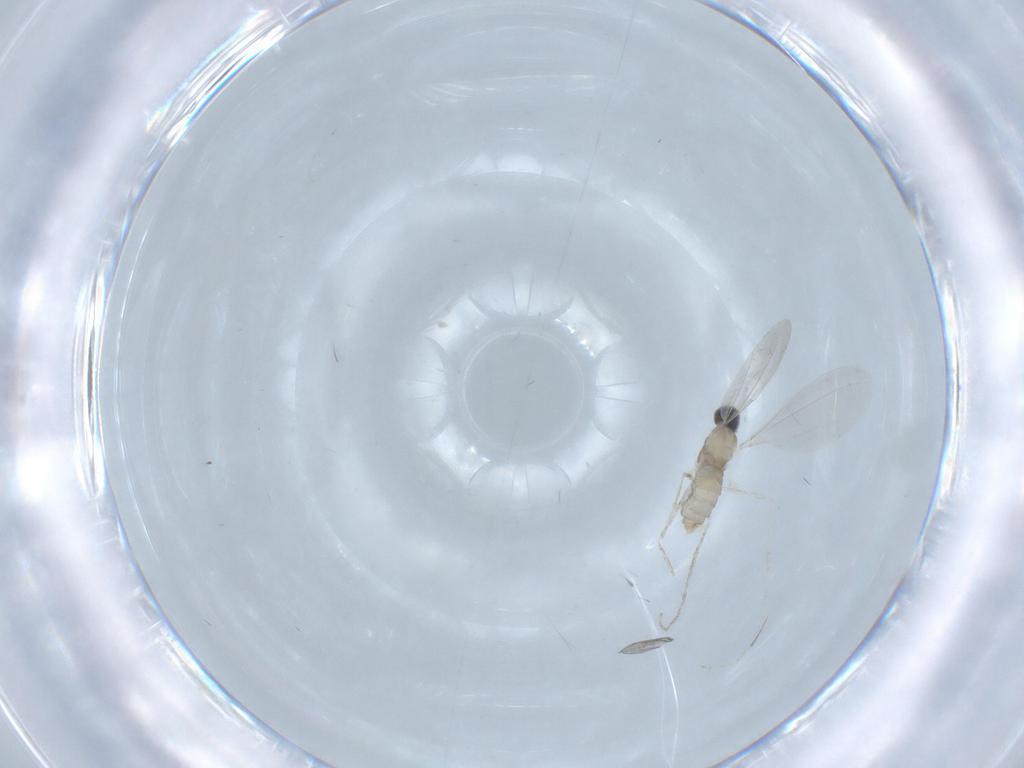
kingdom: Animalia
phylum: Arthropoda
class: Insecta
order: Diptera
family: Cecidomyiidae
